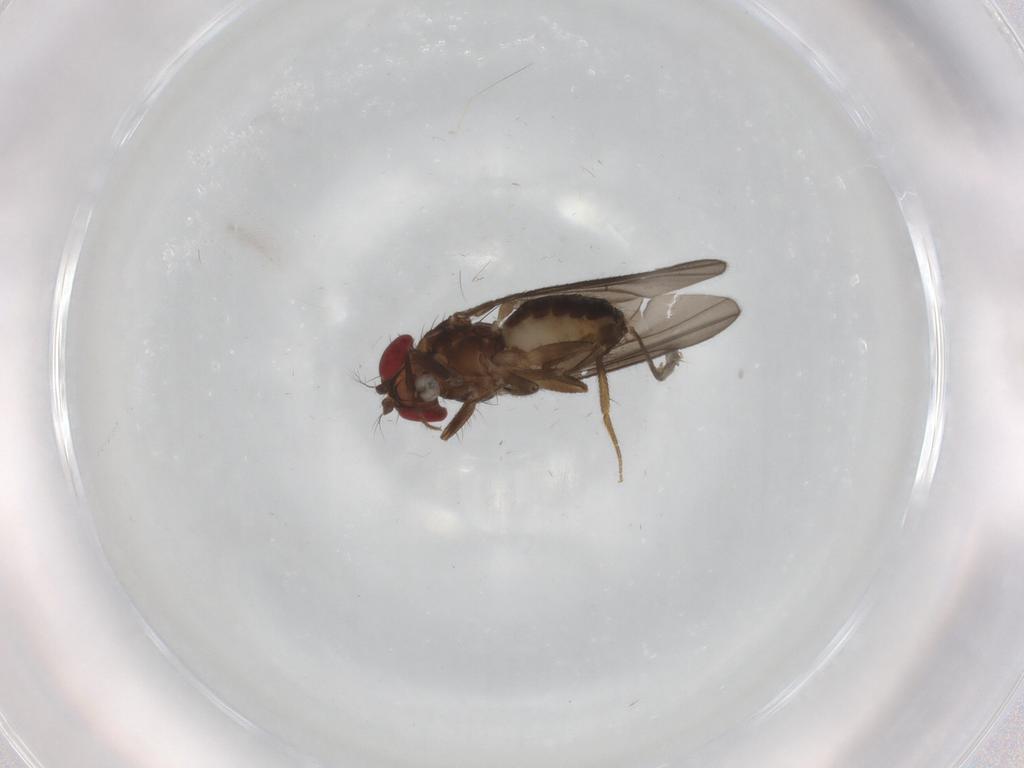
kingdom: Animalia
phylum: Arthropoda
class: Insecta
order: Diptera
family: Drosophilidae
